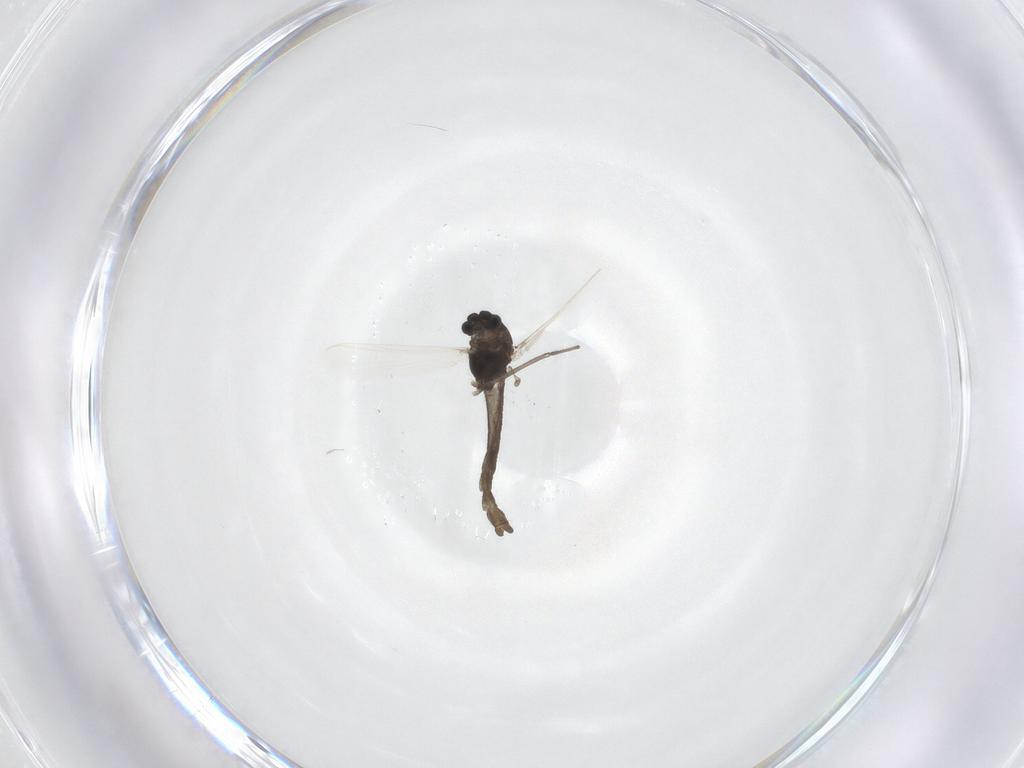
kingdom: Animalia
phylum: Arthropoda
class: Insecta
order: Diptera
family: Chironomidae
